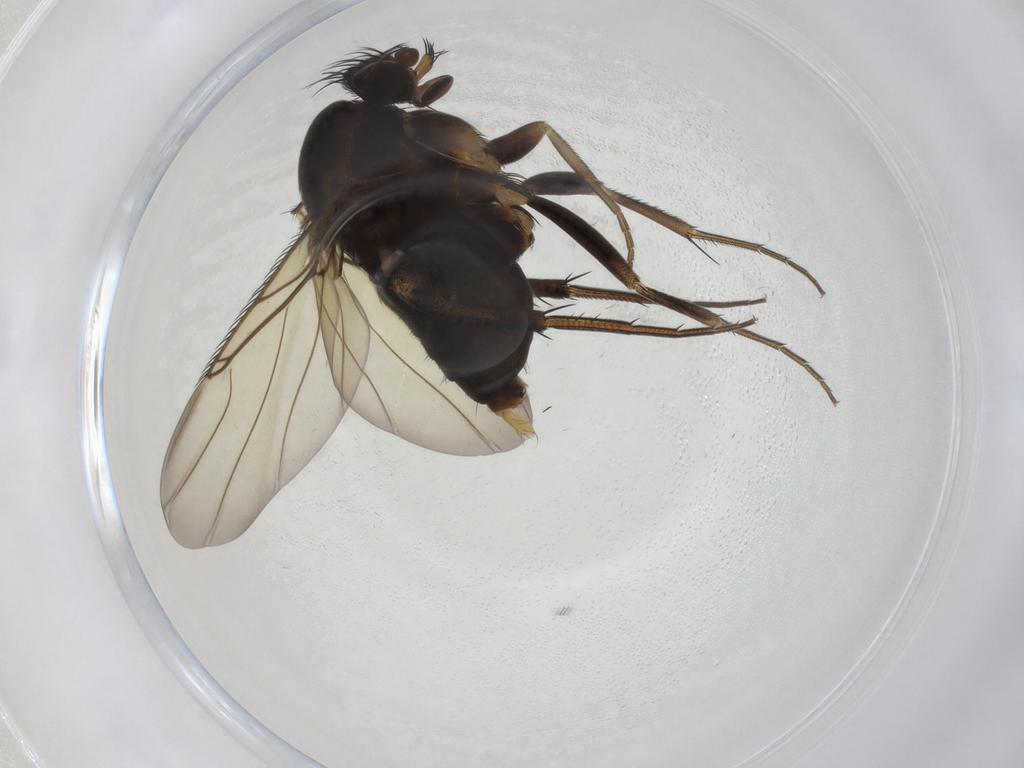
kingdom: Animalia
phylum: Arthropoda
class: Insecta
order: Diptera
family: Phoridae
